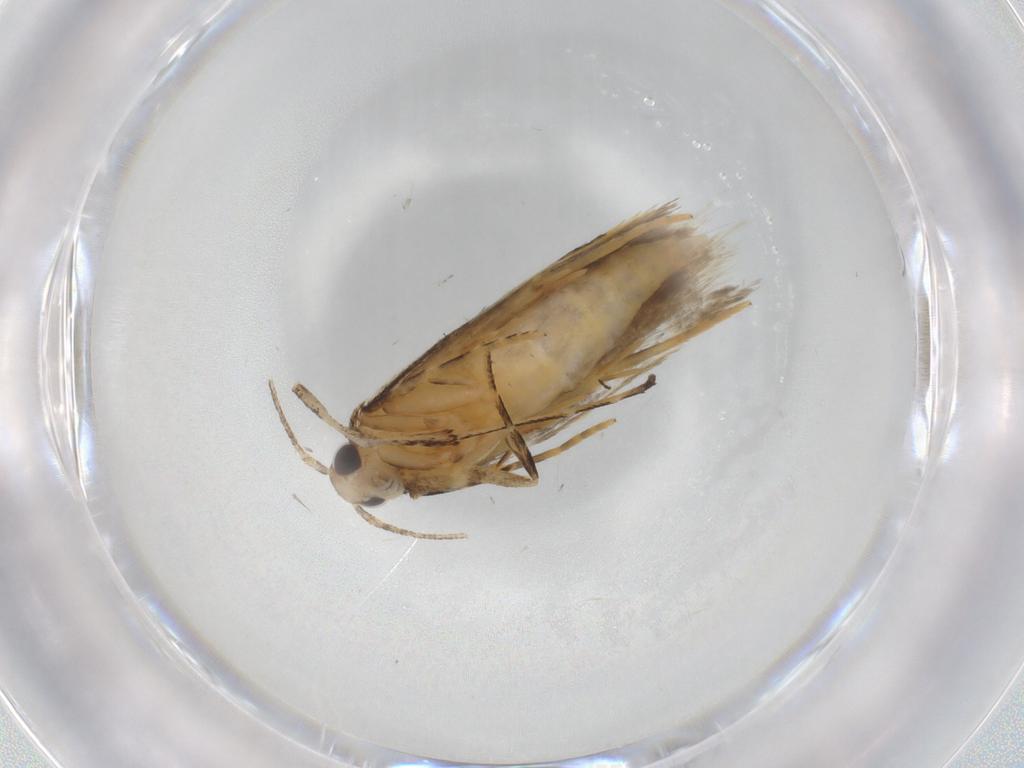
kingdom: Animalia
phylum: Arthropoda
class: Insecta
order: Lepidoptera
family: Autostichidae
